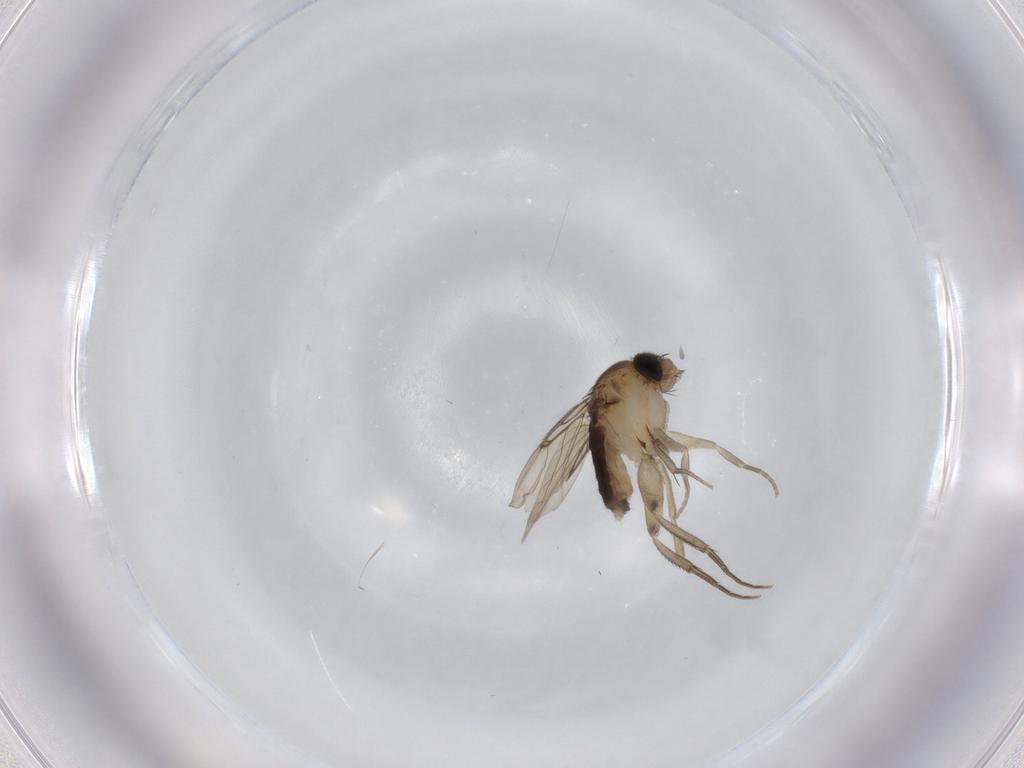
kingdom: Animalia
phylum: Arthropoda
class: Insecta
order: Diptera
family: Phoridae
